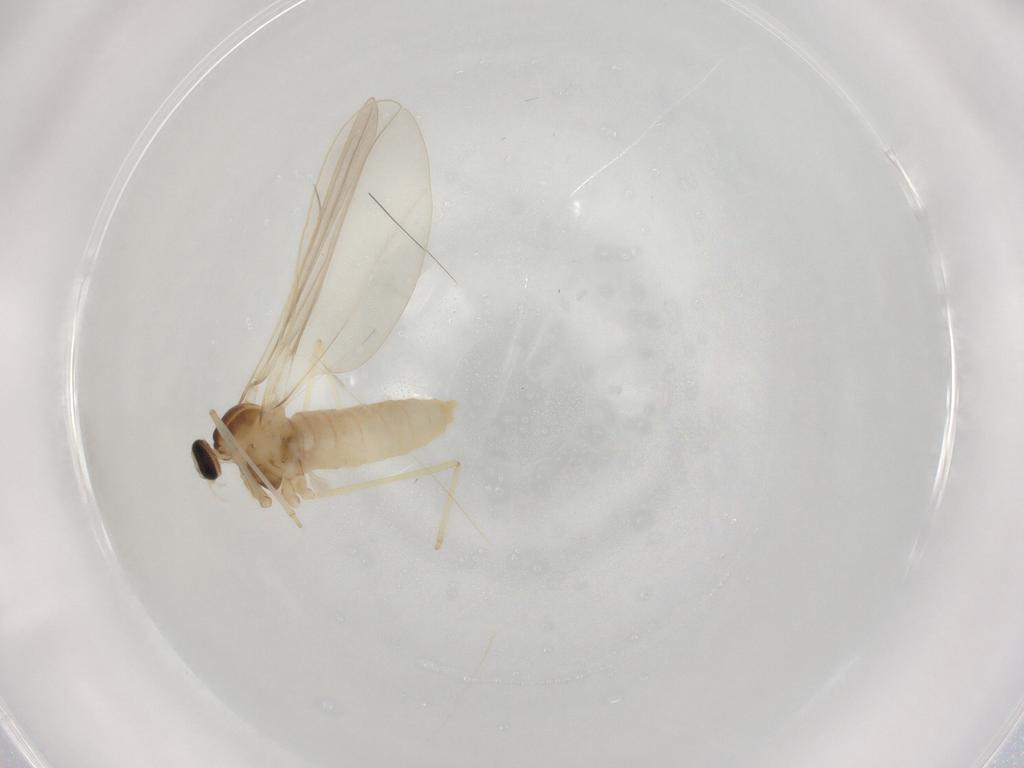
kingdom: Animalia
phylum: Arthropoda
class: Insecta
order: Diptera
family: Cecidomyiidae
